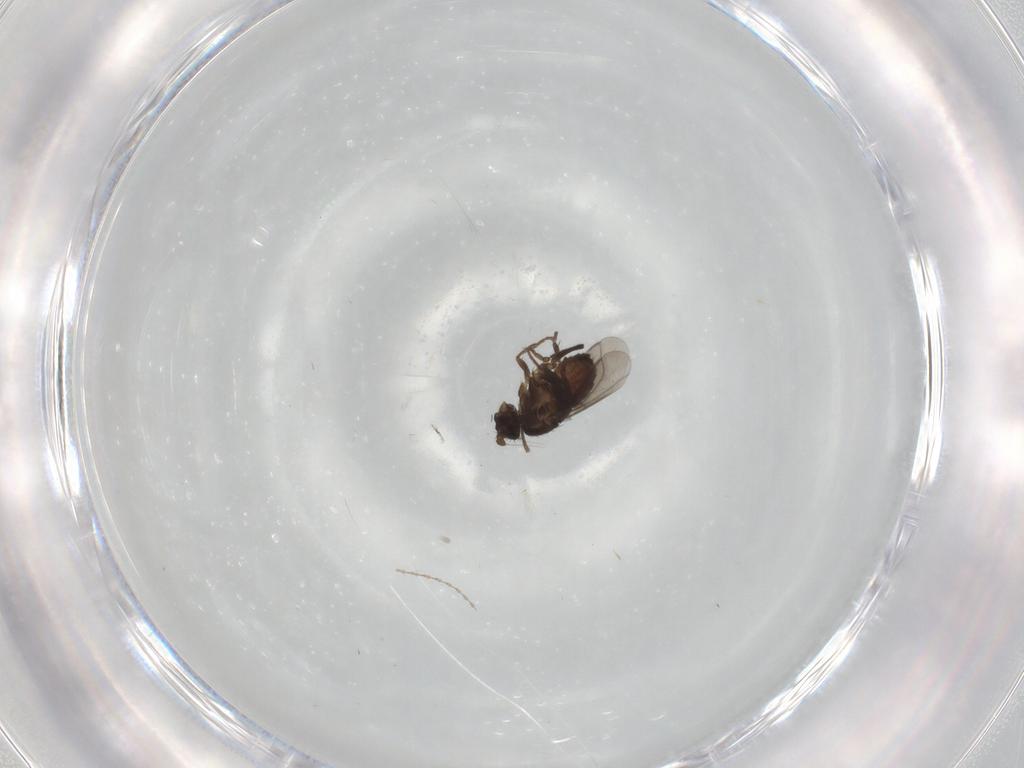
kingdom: Animalia
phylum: Arthropoda
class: Insecta
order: Diptera
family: Cecidomyiidae
